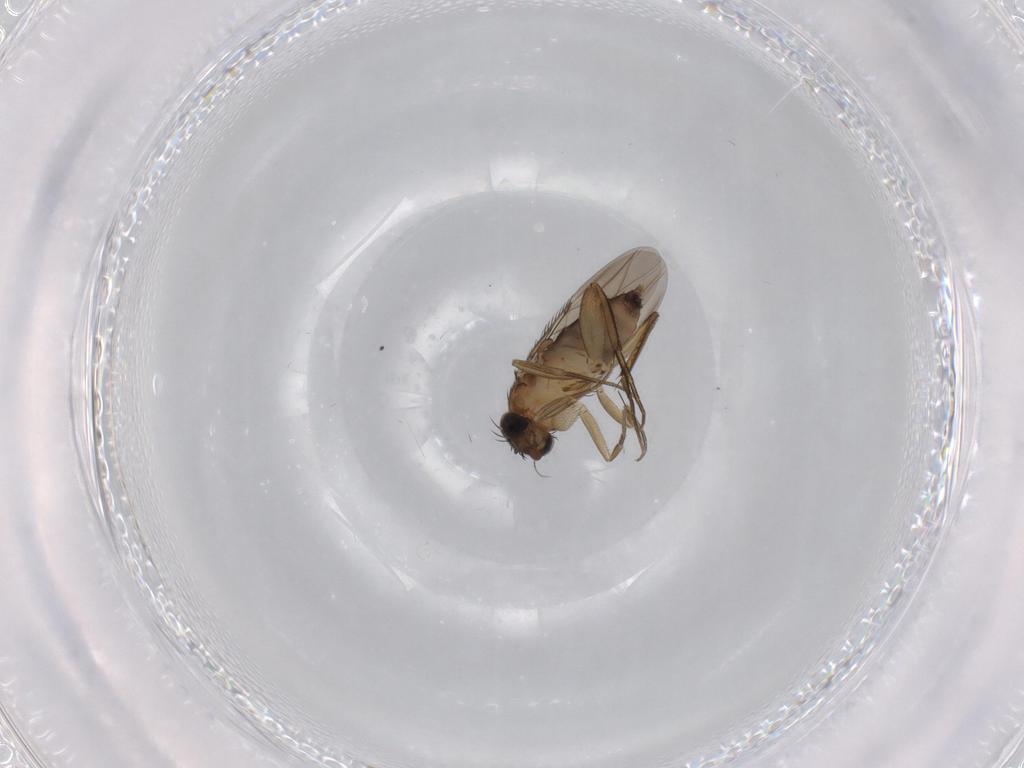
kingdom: Animalia
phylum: Arthropoda
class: Insecta
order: Diptera
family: Phoridae
